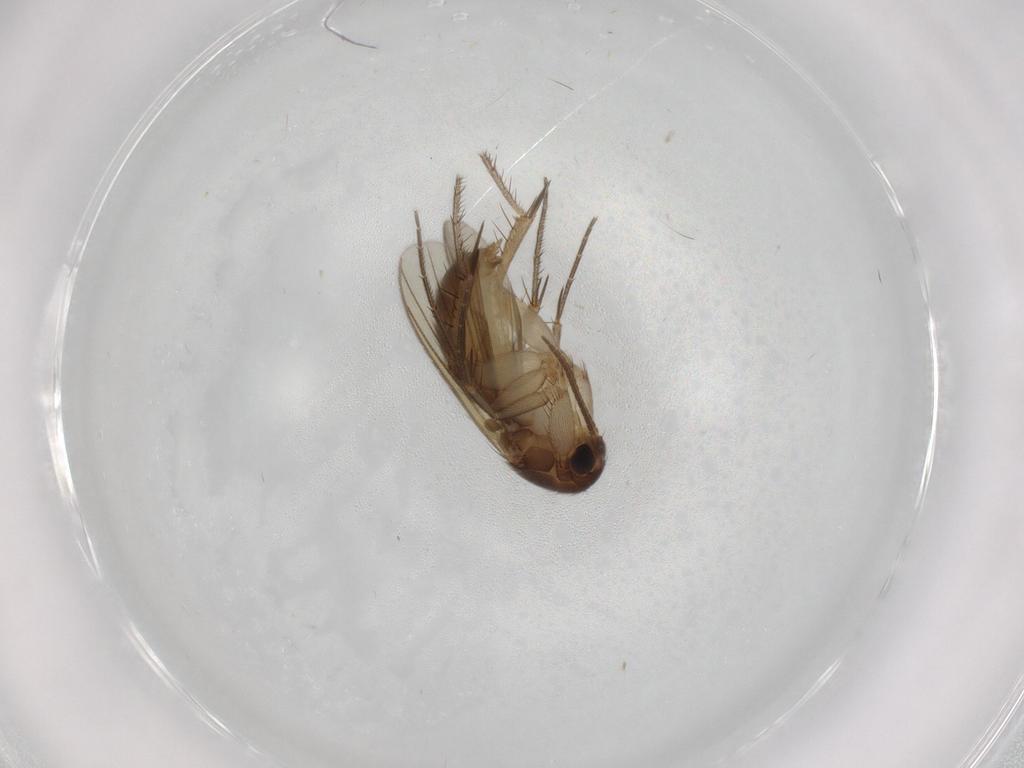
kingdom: Animalia
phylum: Arthropoda
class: Insecta
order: Diptera
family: Mycetophilidae
